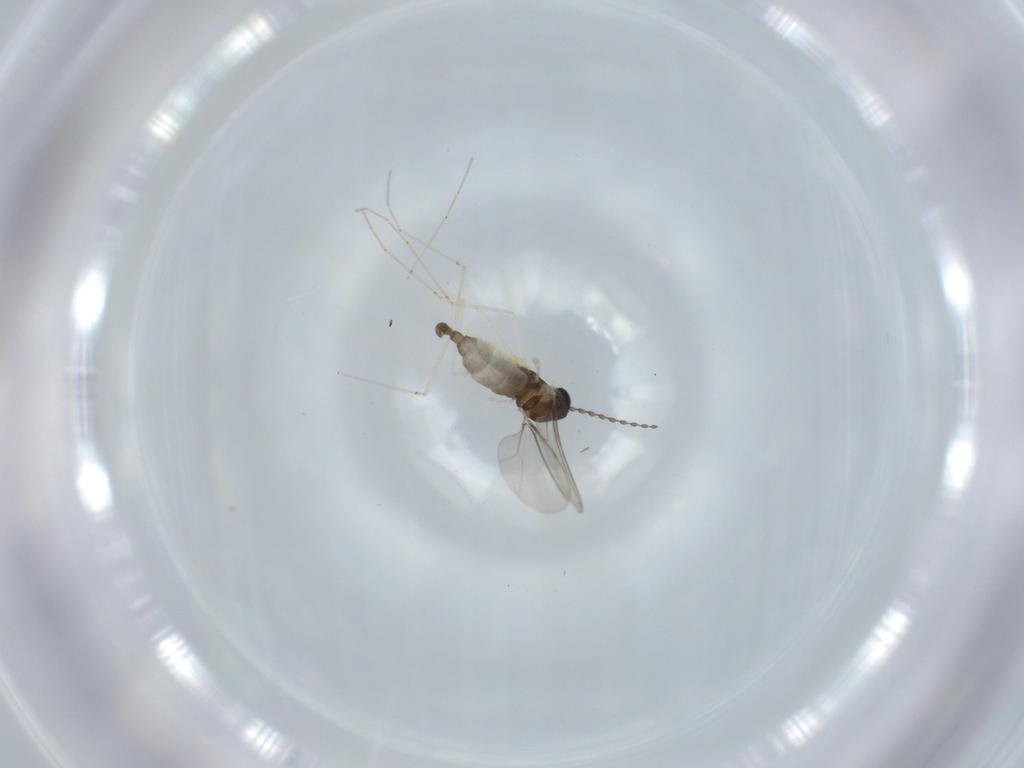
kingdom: Animalia
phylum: Arthropoda
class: Insecta
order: Diptera
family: Cecidomyiidae
